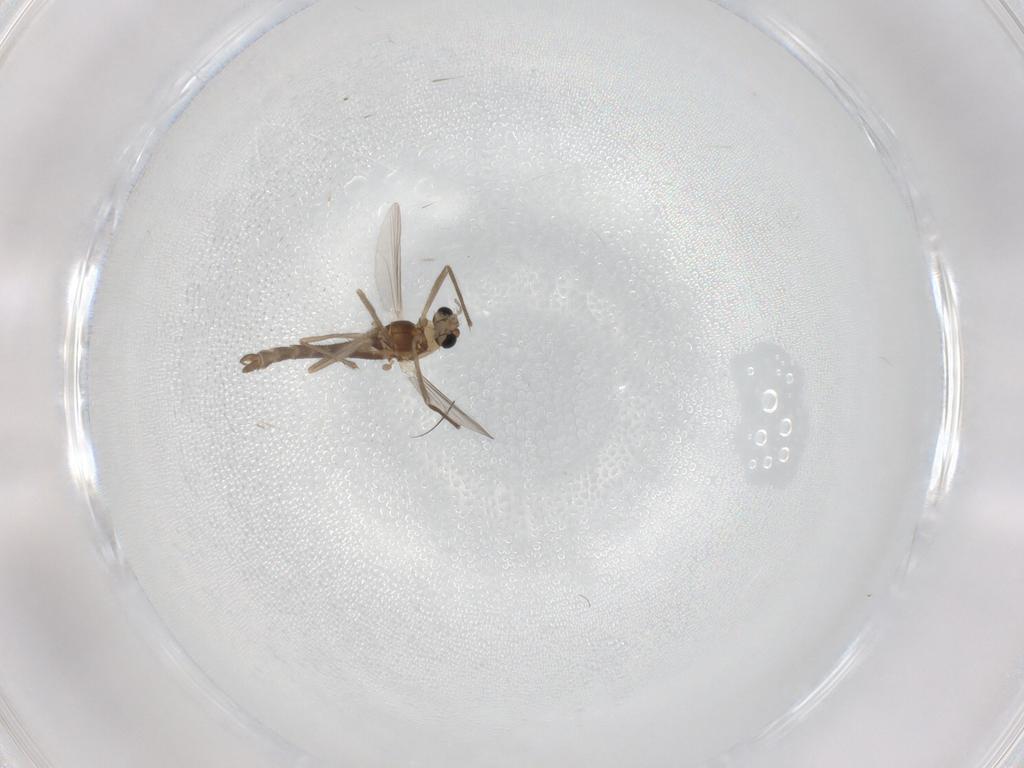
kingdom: Animalia
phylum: Arthropoda
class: Insecta
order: Diptera
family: Chironomidae
